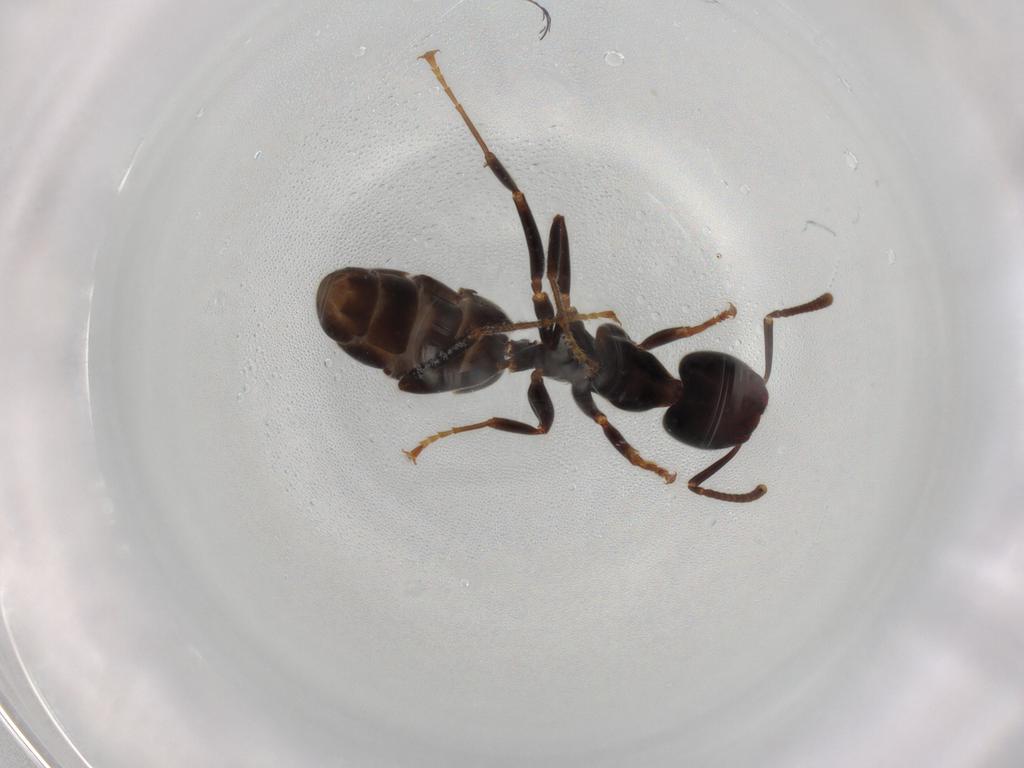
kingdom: Animalia
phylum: Arthropoda
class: Insecta
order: Hymenoptera
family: Formicidae
